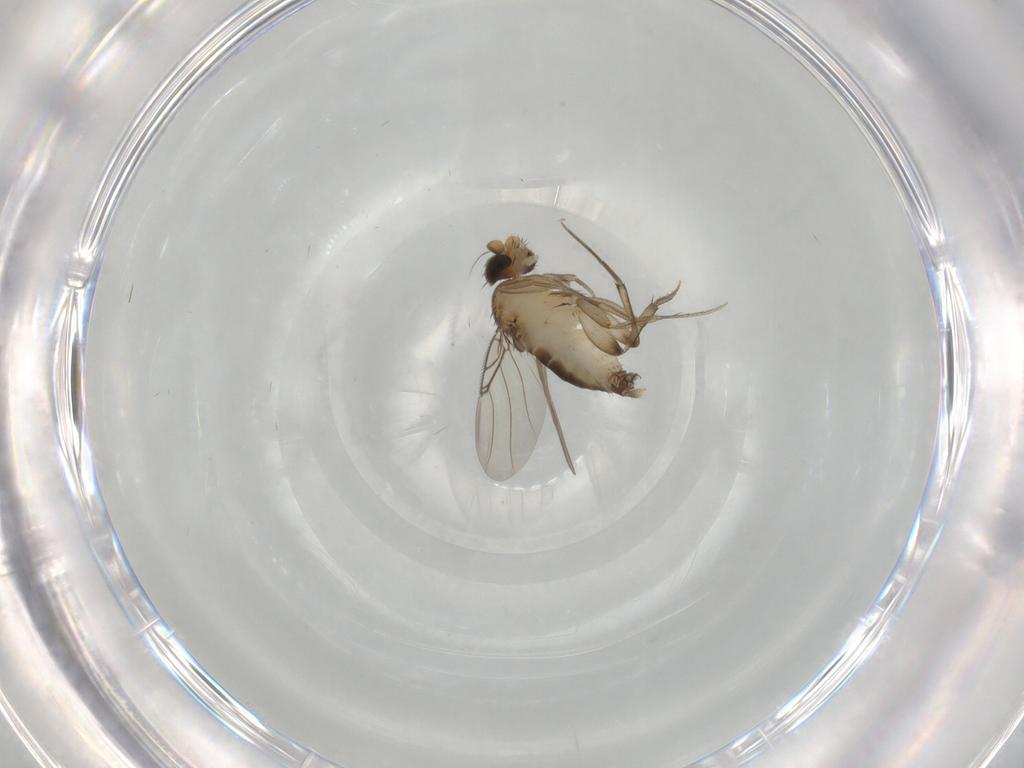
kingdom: Animalia
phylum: Arthropoda
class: Insecta
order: Diptera
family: Phoridae
